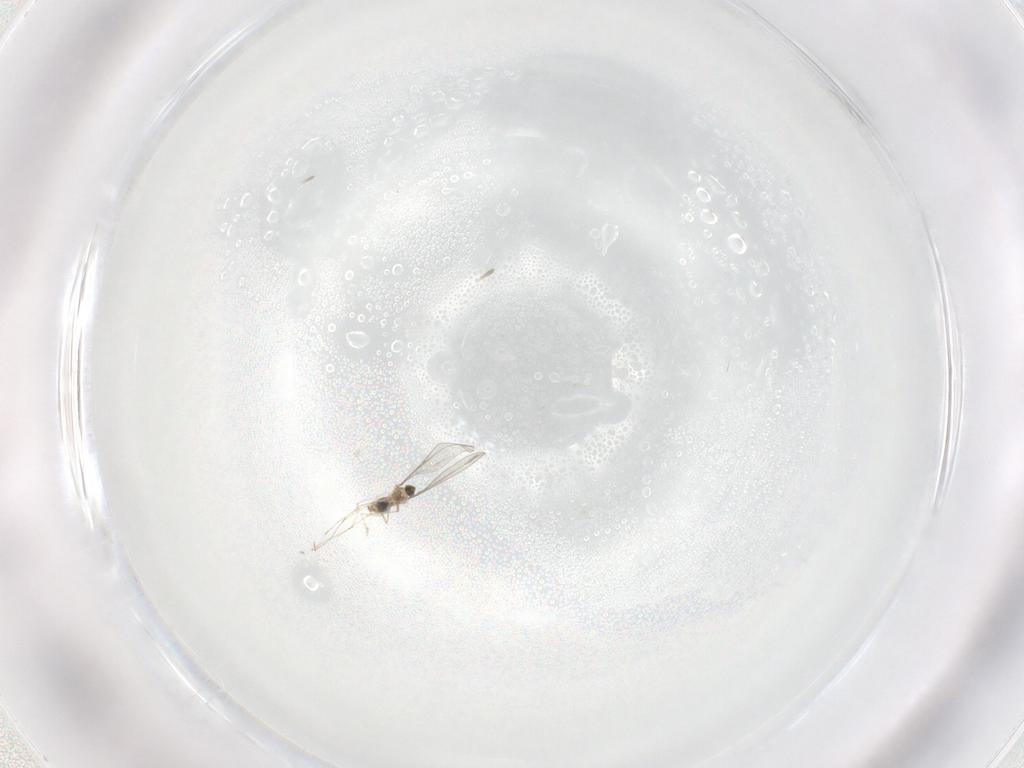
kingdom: Animalia
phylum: Arthropoda
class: Insecta
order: Diptera
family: Cecidomyiidae
